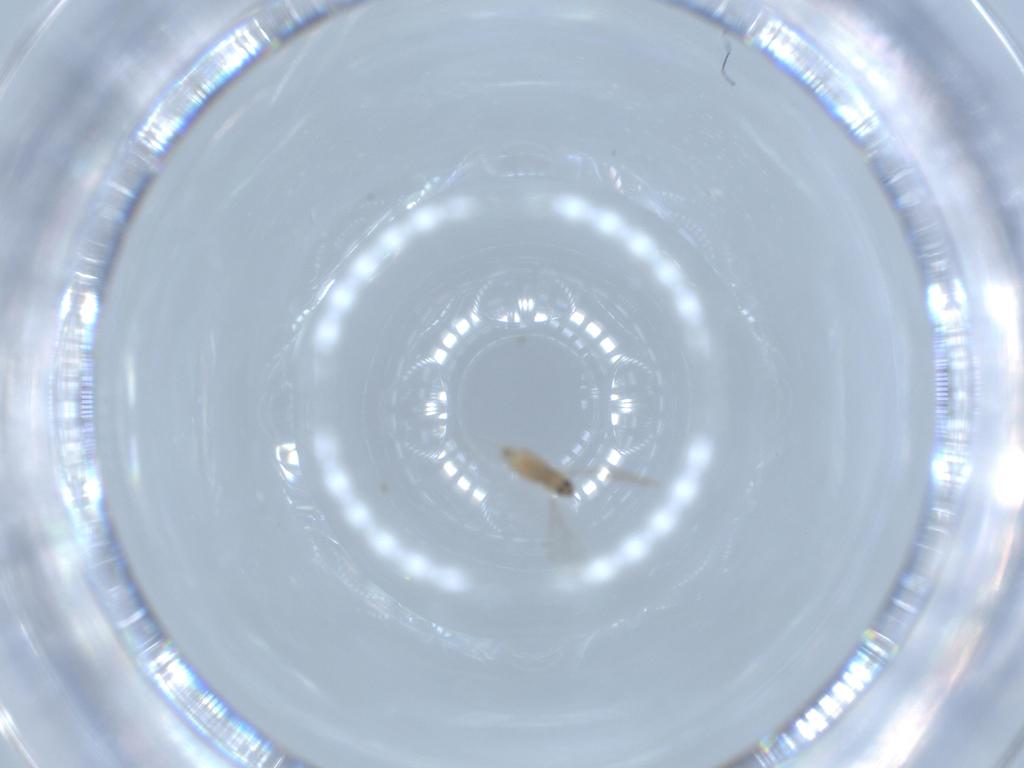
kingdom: Animalia
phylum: Arthropoda
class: Insecta
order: Diptera
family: Cecidomyiidae
